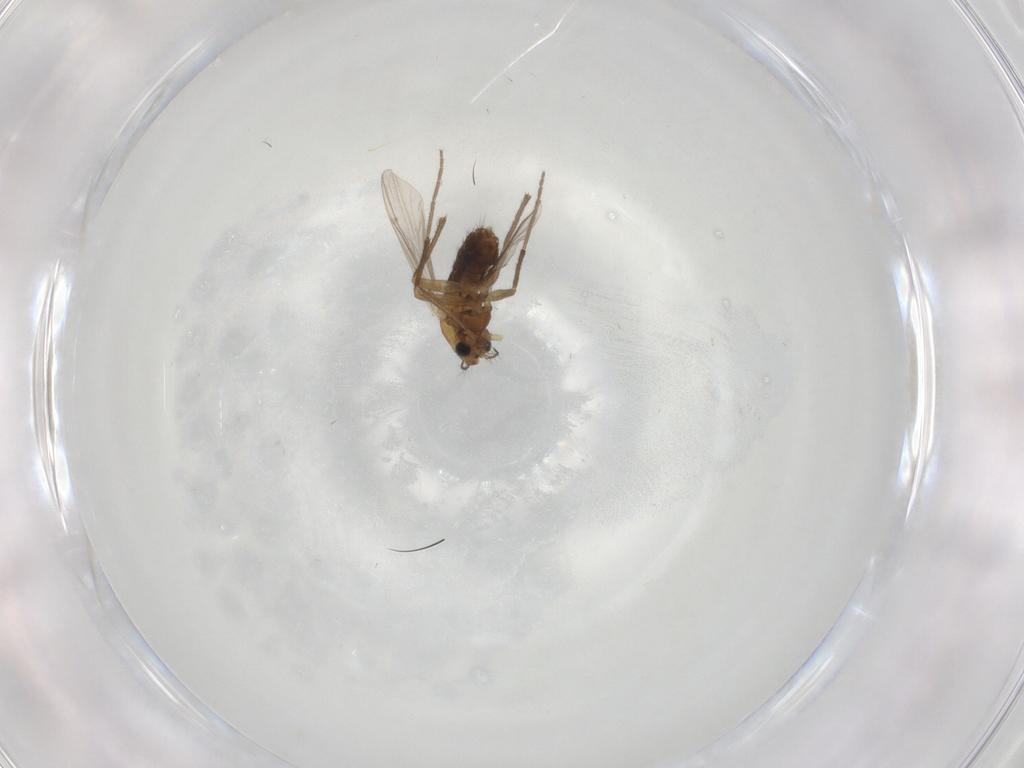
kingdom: Animalia
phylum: Arthropoda
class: Insecta
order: Diptera
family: Chironomidae
